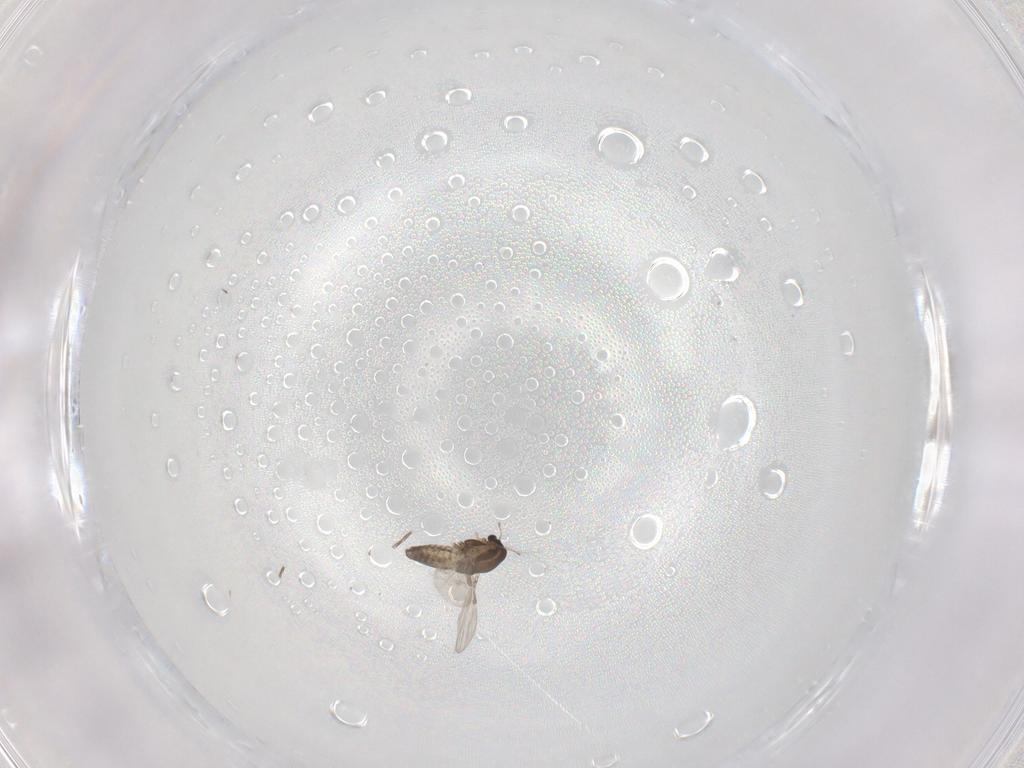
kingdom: Animalia
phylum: Arthropoda
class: Insecta
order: Diptera
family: Chironomidae
